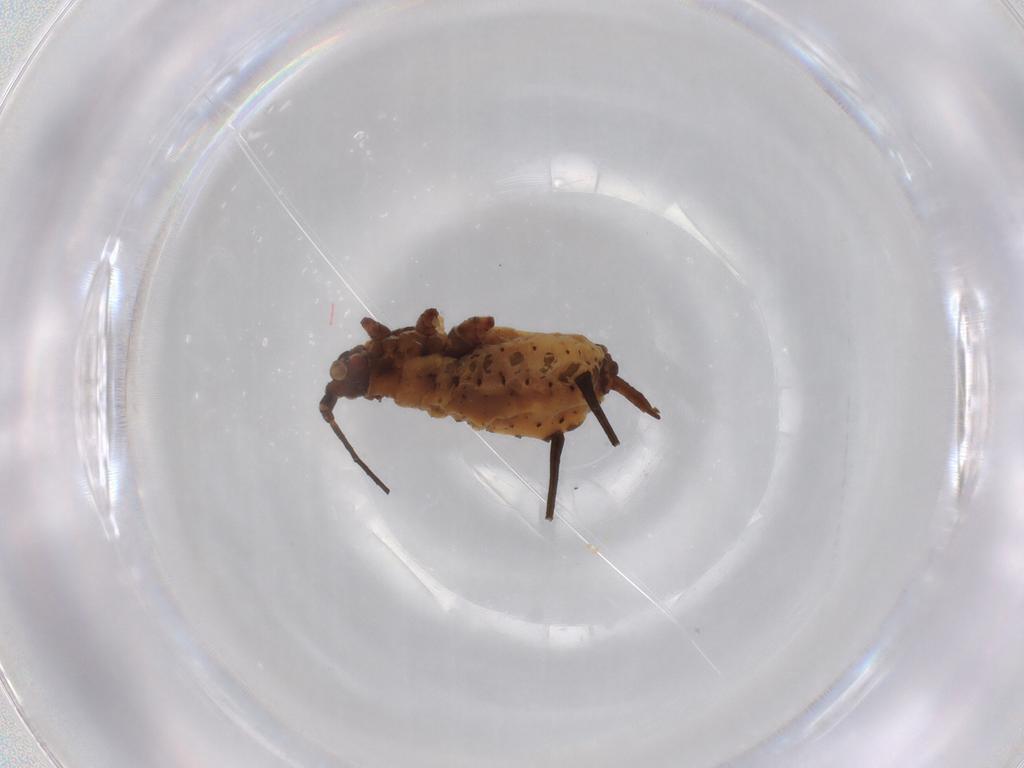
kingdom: Animalia
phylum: Arthropoda
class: Insecta
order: Hemiptera
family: Aphididae
